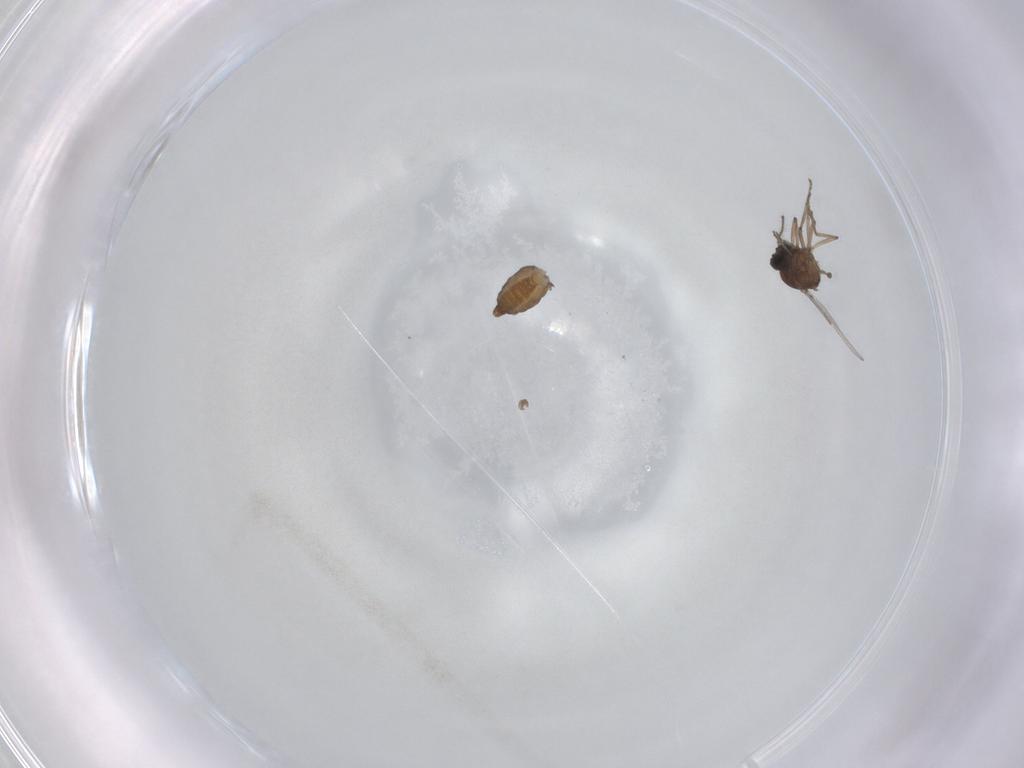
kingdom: Animalia
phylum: Arthropoda
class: Insecta
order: Diptera
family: Ceratopogonidae
